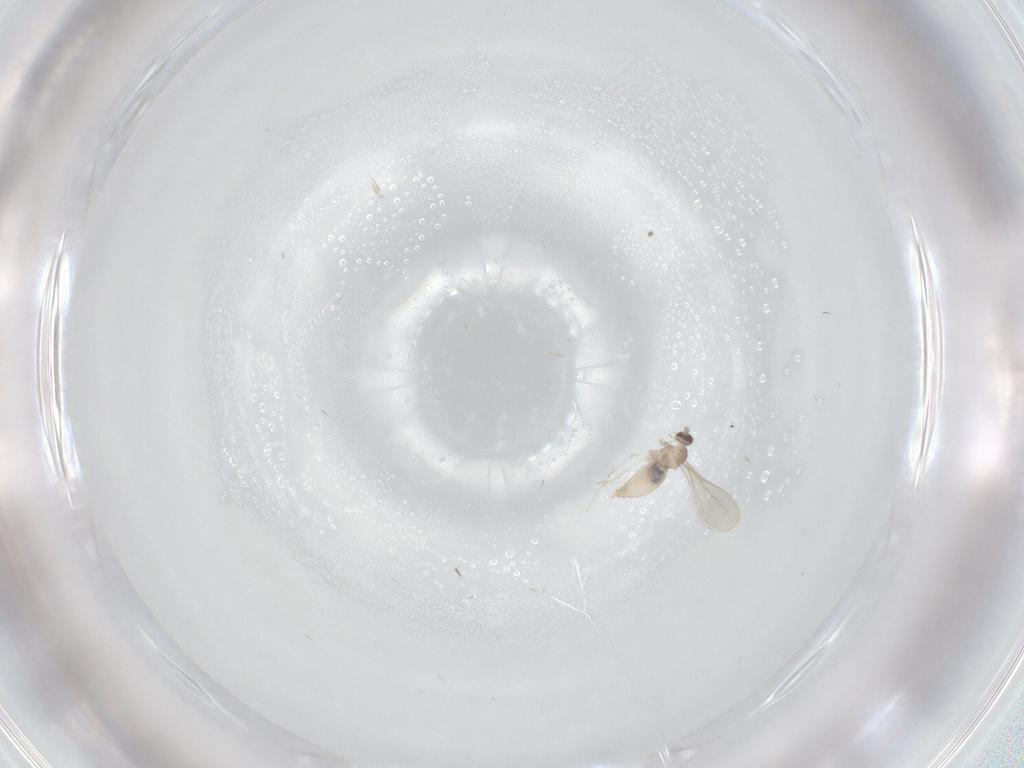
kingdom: Animalia
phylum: Arthropoda
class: Insecta
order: Diptera
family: Cecidomyiidae
